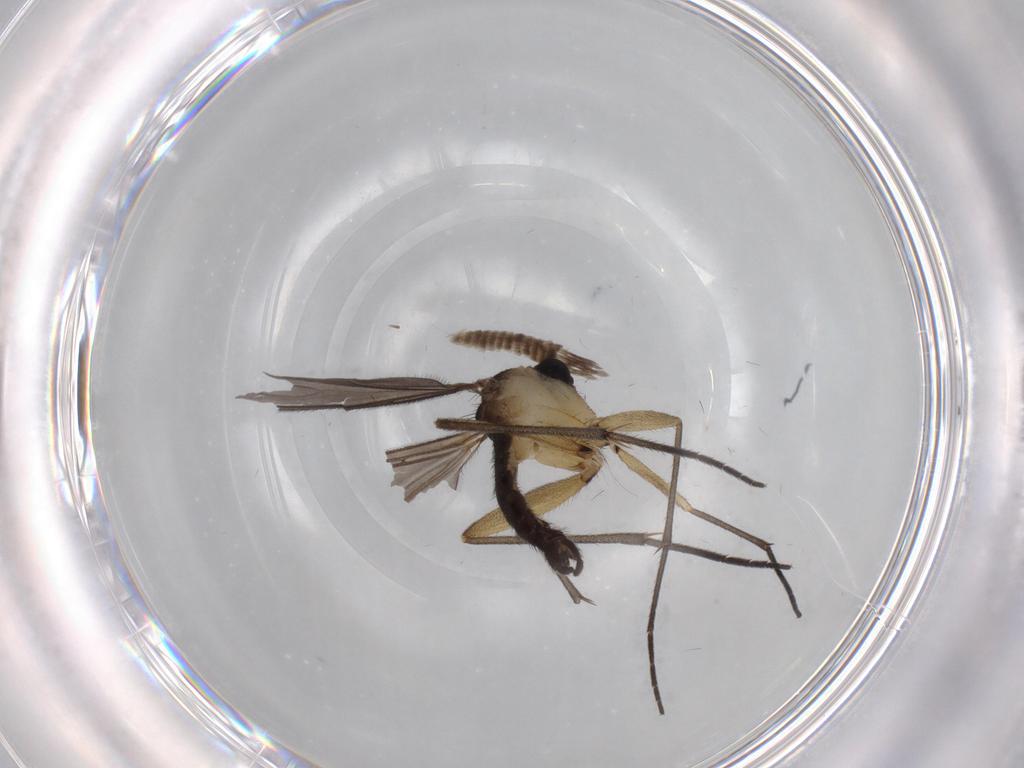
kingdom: Animalia
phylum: Arthropoda
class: Insecta
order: Diptera
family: Sciaridae
